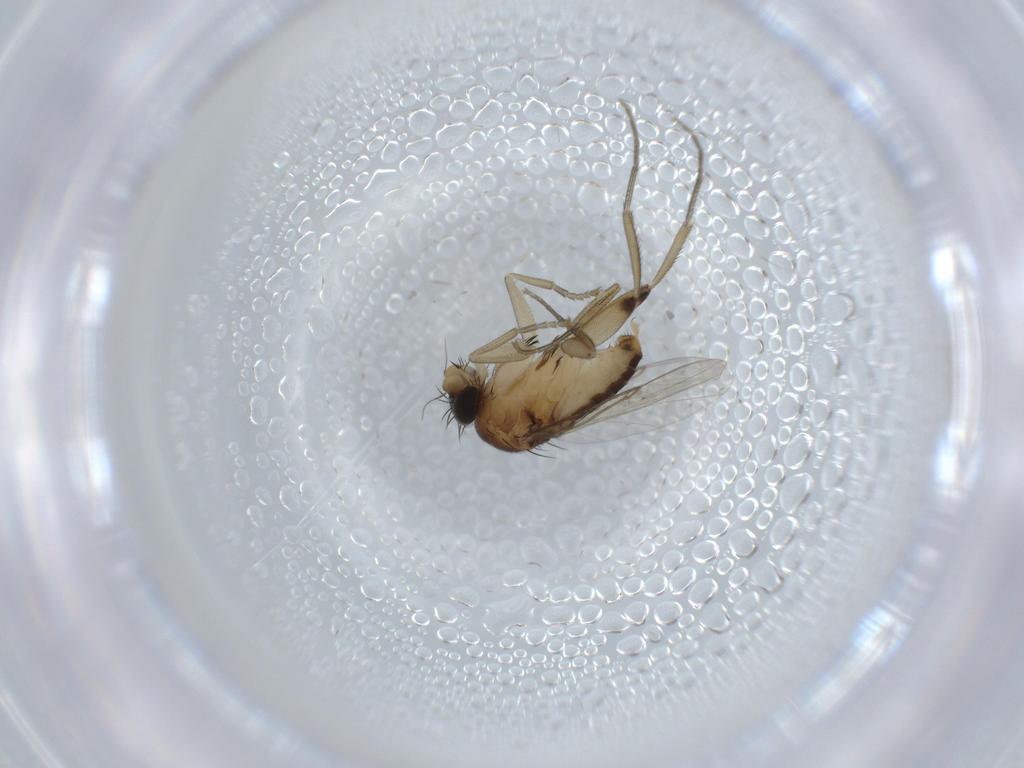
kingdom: Animalia
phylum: Arthropoda
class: Insecta
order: Diptera
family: Phoridae
